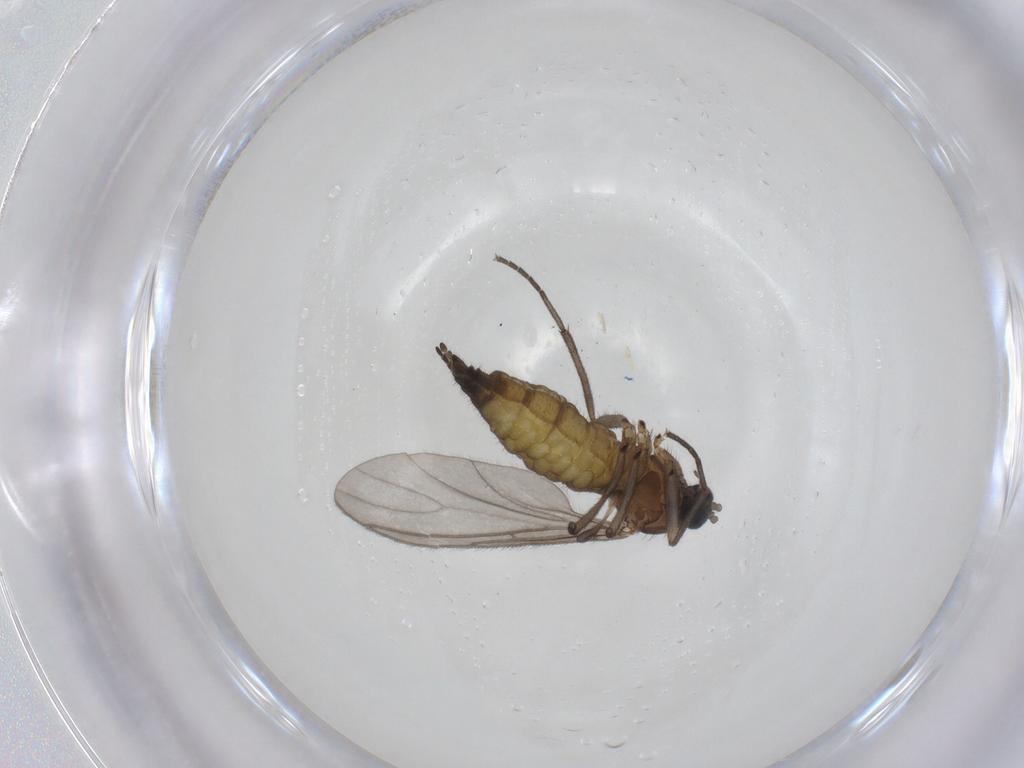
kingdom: Animalia
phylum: Arthropoda
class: Insecta
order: Diptera
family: Sciaridae
